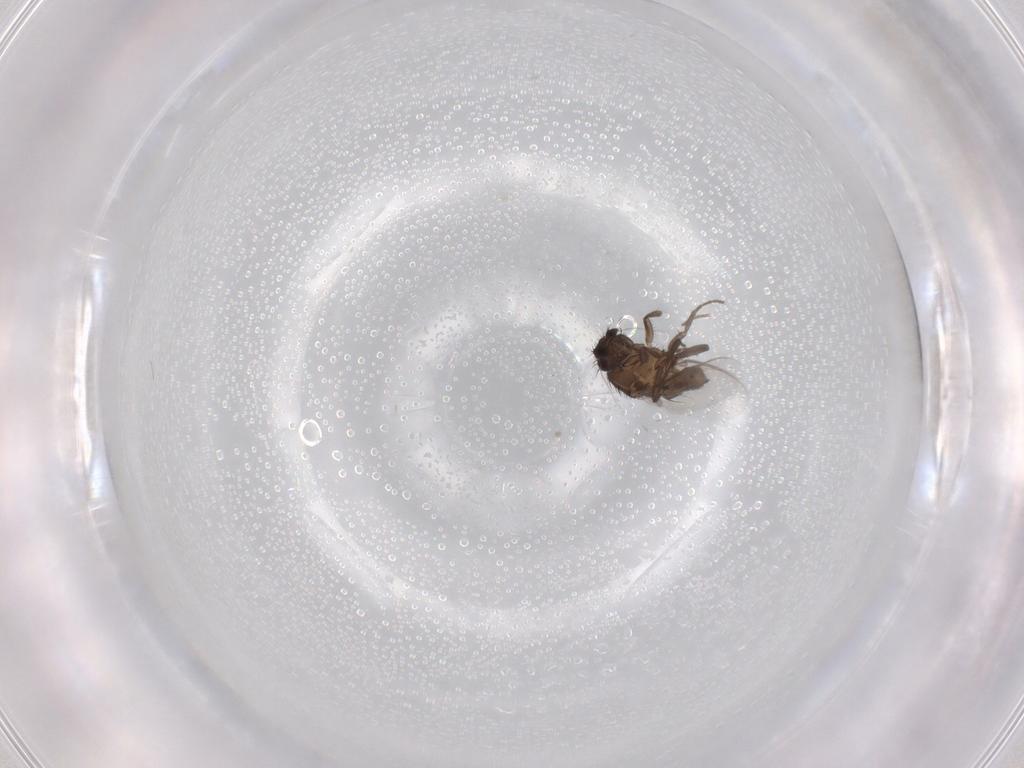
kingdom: Animalia
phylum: Arthropoda
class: Insecta
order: Diptera
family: Sphaeroceridae
